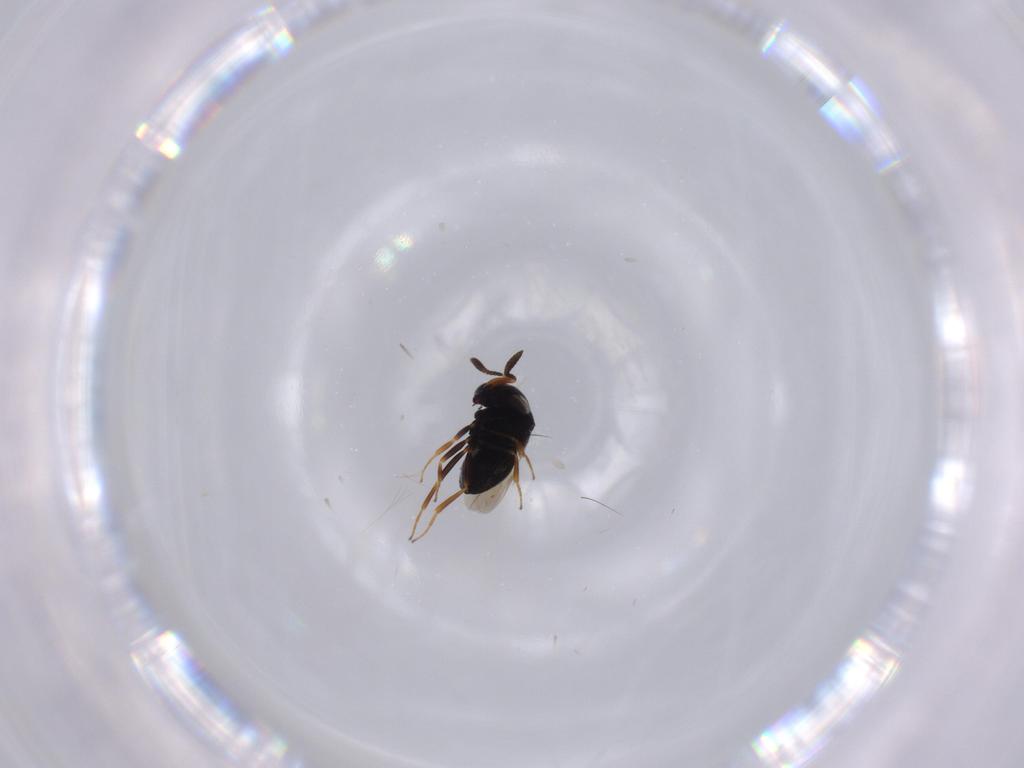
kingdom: Animalia
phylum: Arthropoda
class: Insecta
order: Hymenoptera
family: Scelionidae
